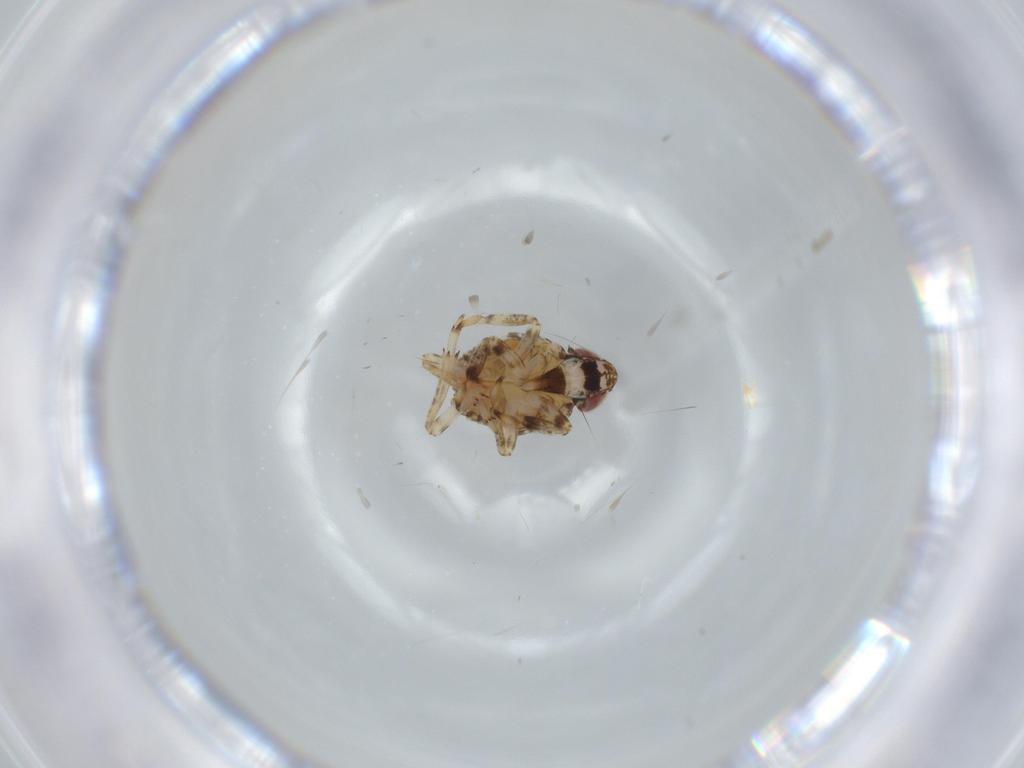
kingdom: Animalia
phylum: Arthropoda
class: Insecta
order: Hemiptera
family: Issidae
